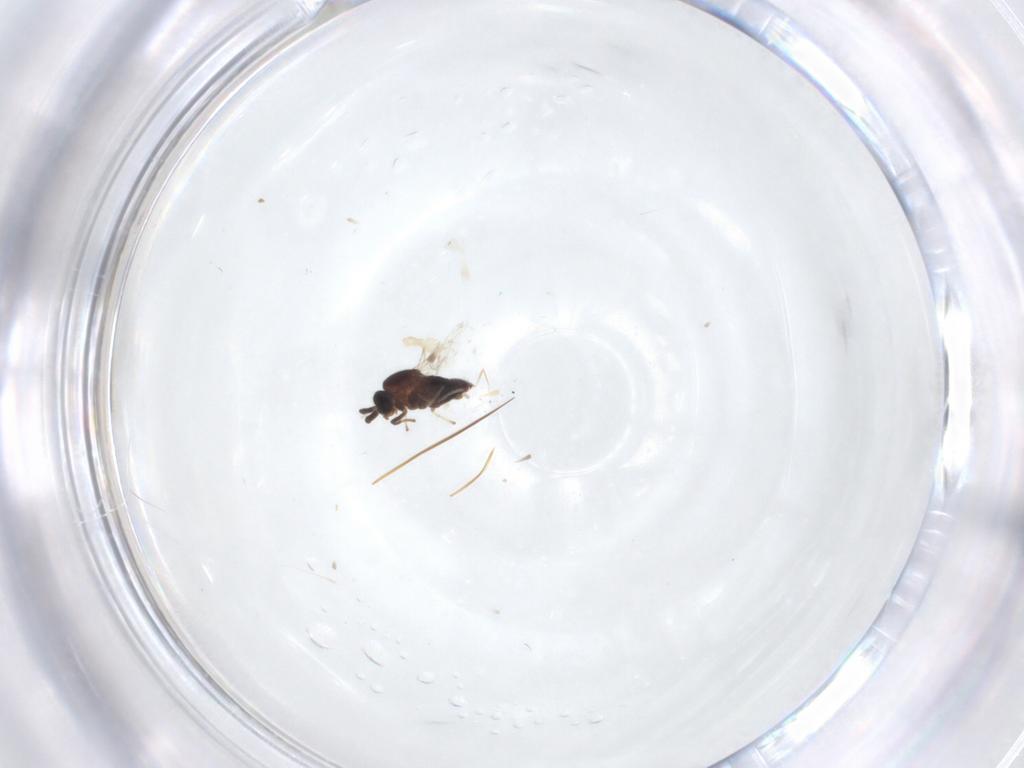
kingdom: Animalia
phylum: Arthropoda
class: Insecta
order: Diptera
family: Scatopsidae
